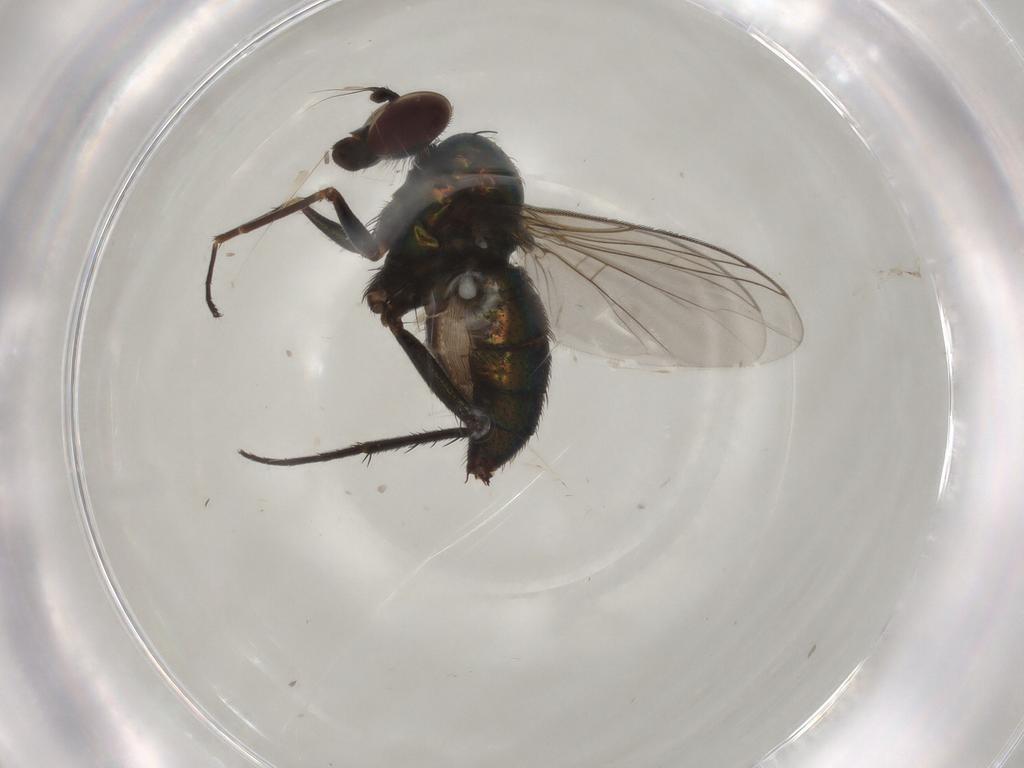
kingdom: Animalia
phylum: Arthropoda
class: Insecta
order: Diptera
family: Dolichopodidae
